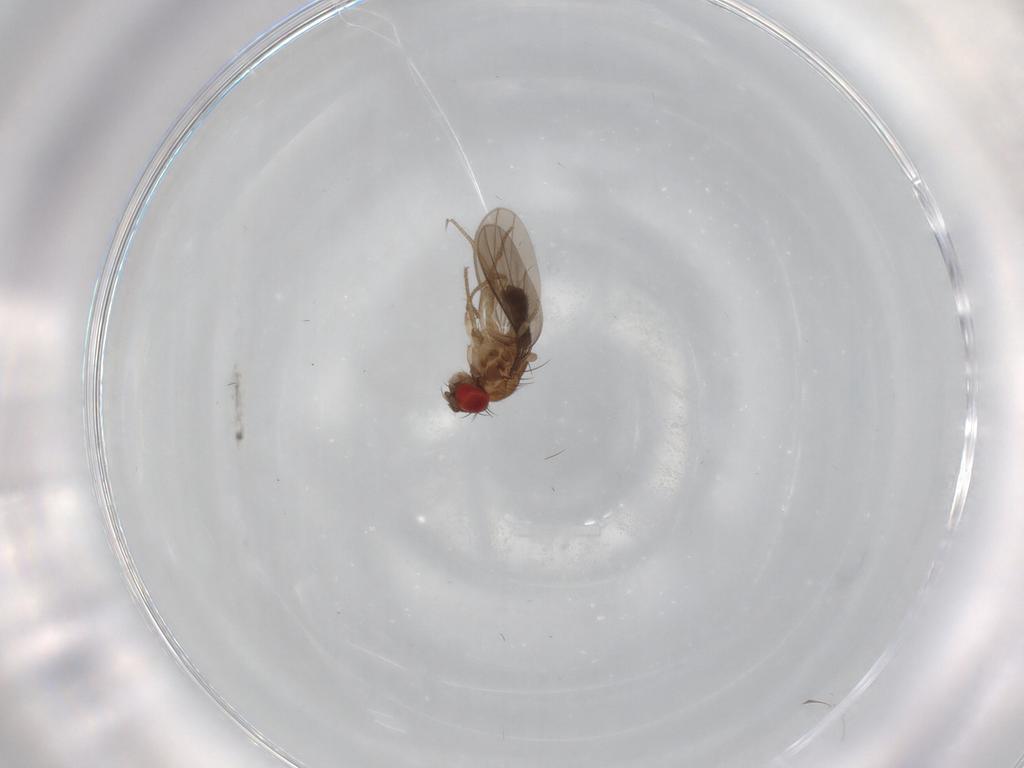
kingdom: Animalia
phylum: Arthropoda
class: Insecta
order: Diptera
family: Drosophilidae
